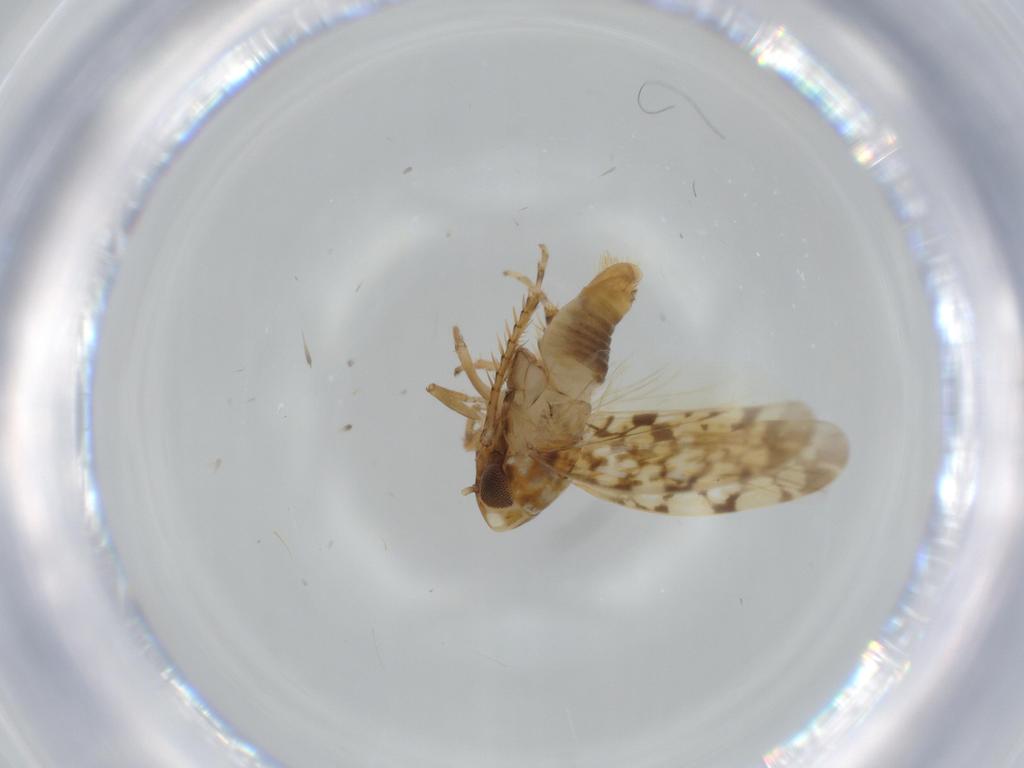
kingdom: Animalia
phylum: Arthropoda
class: Insecta
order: Hemiptera
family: Cicadellidae
